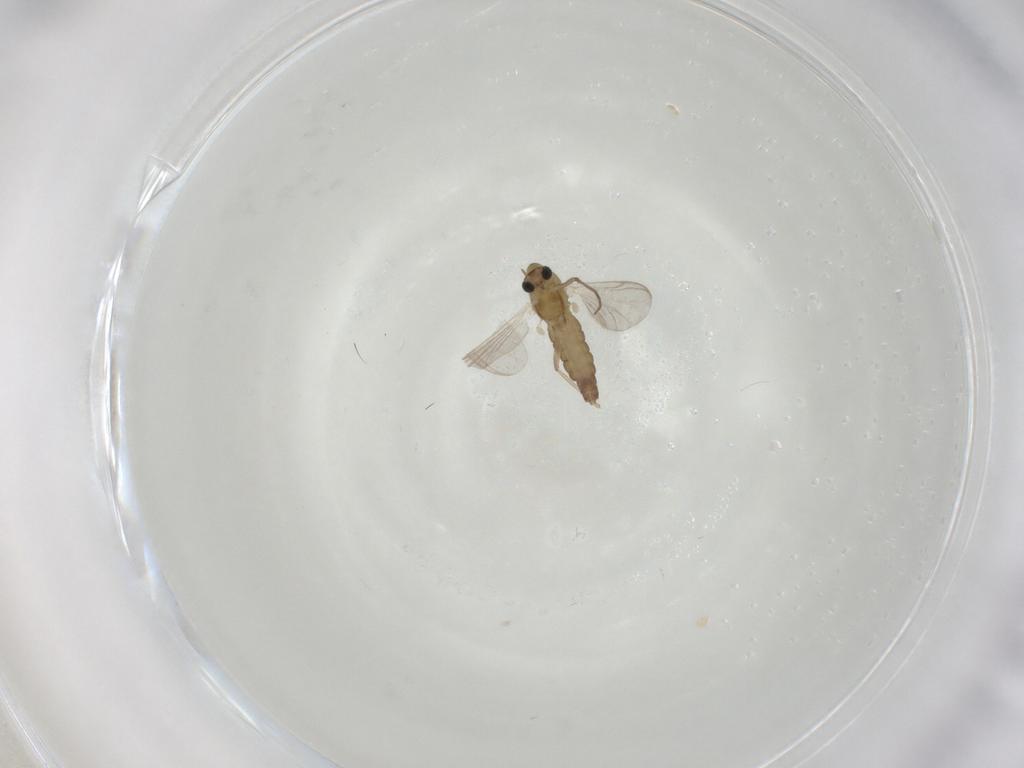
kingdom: Animalia
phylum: Arthropoda
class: Insecta
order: Diptera
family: Chironomidae
